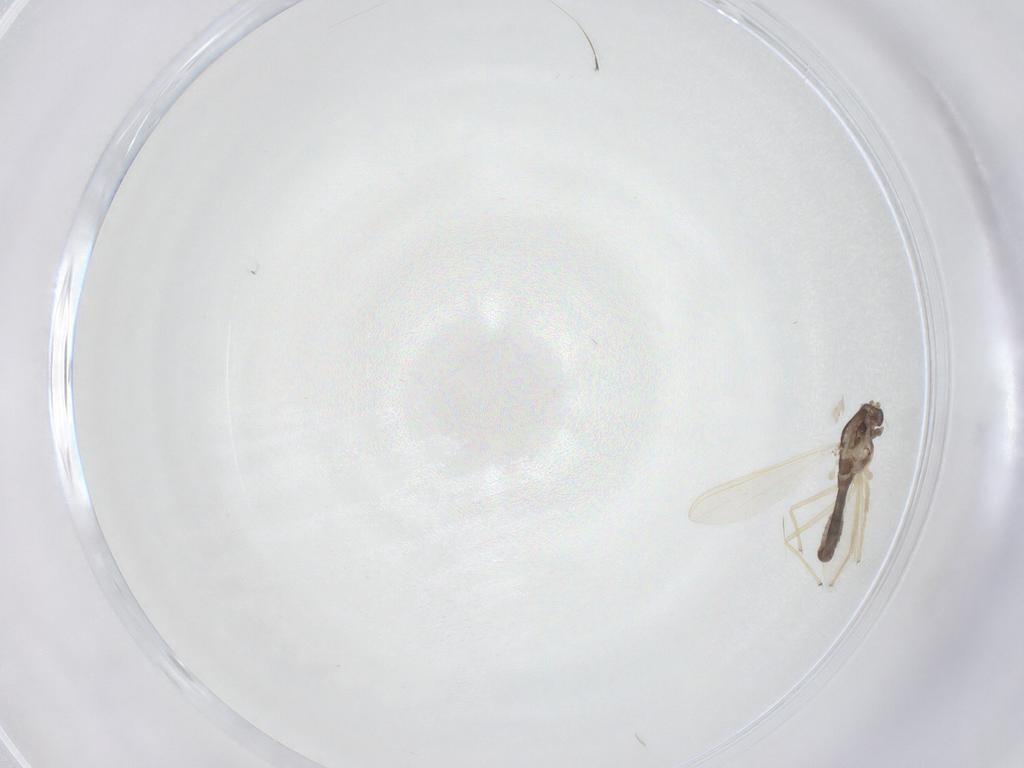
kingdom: Animalia
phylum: Arthropoda
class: Insecta
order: Diptera
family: Chironomidae
